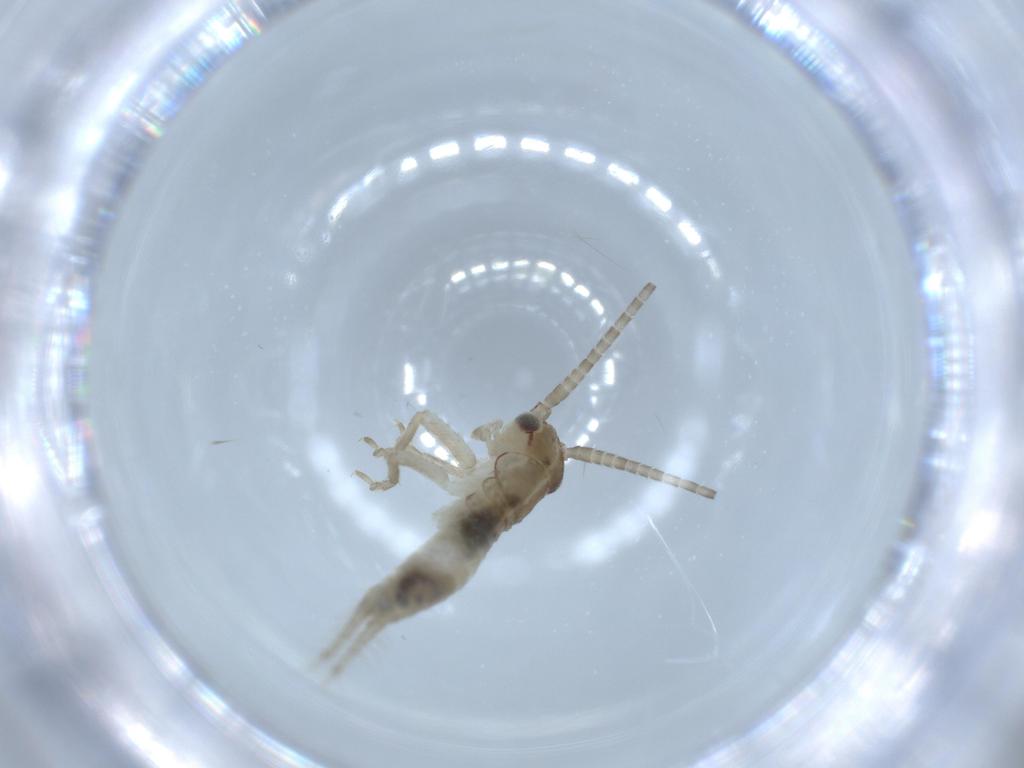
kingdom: Animalia
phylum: Arthropoda
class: Insecta
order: Orthoptera
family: Gryllidae
